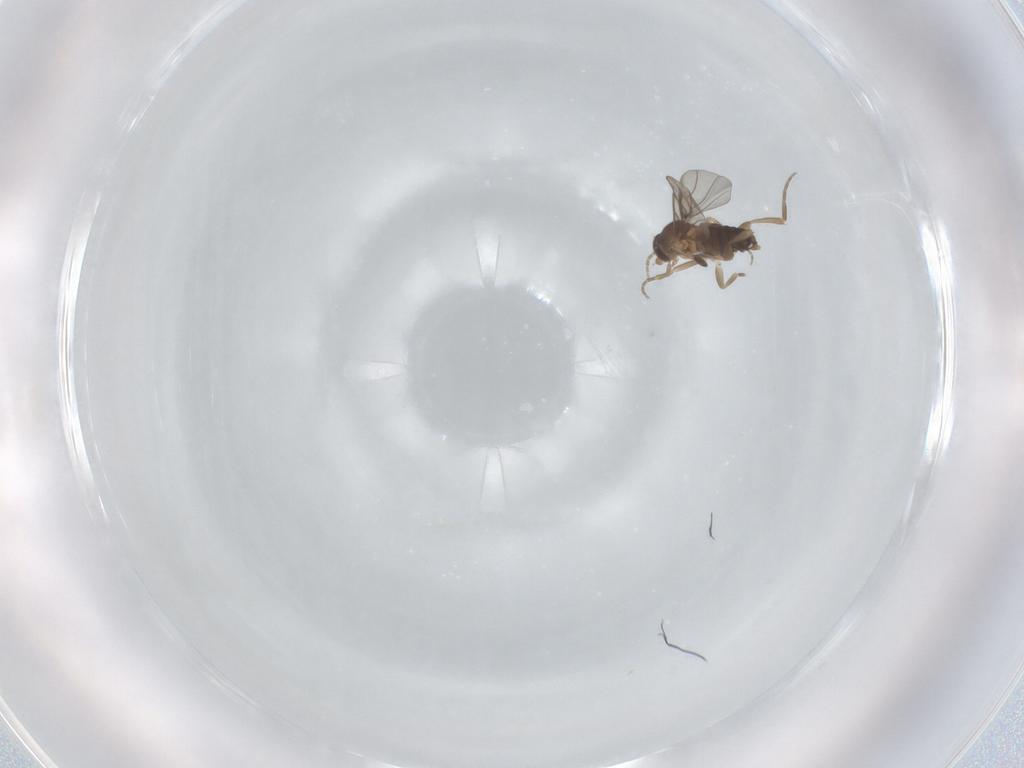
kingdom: Animalia
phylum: Arthropoda
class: Insecta
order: Diptera
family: Phoridae
